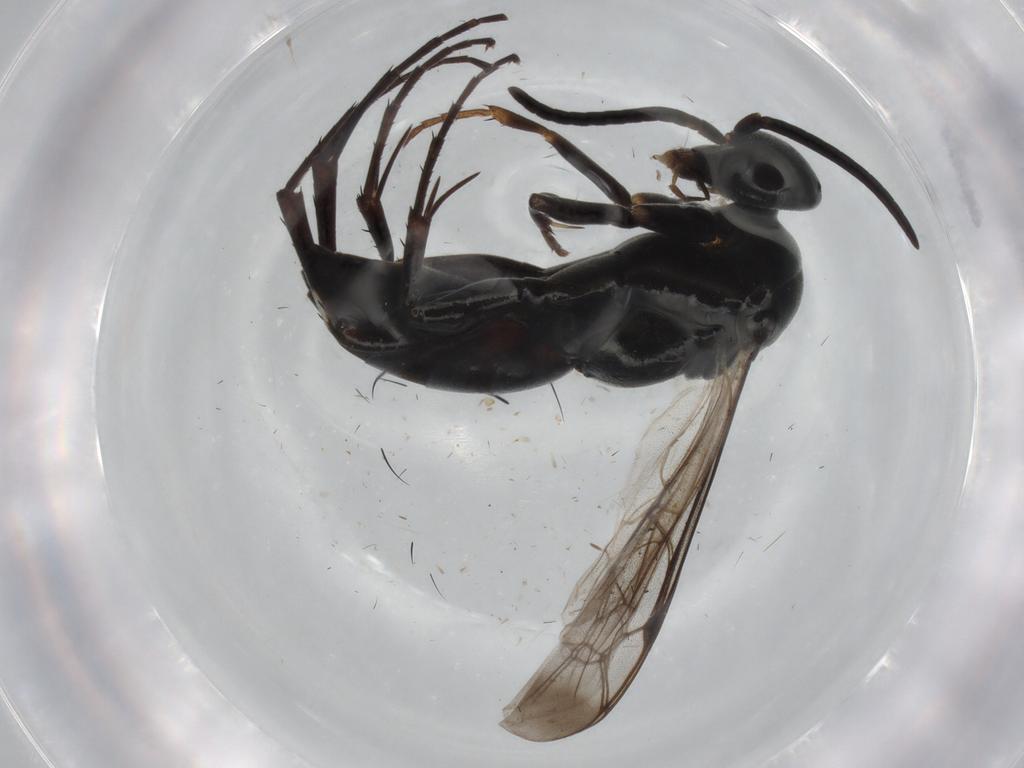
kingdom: Animalia
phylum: Arthropoda
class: Insecta
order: Hymenoptera
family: Pompilidae
